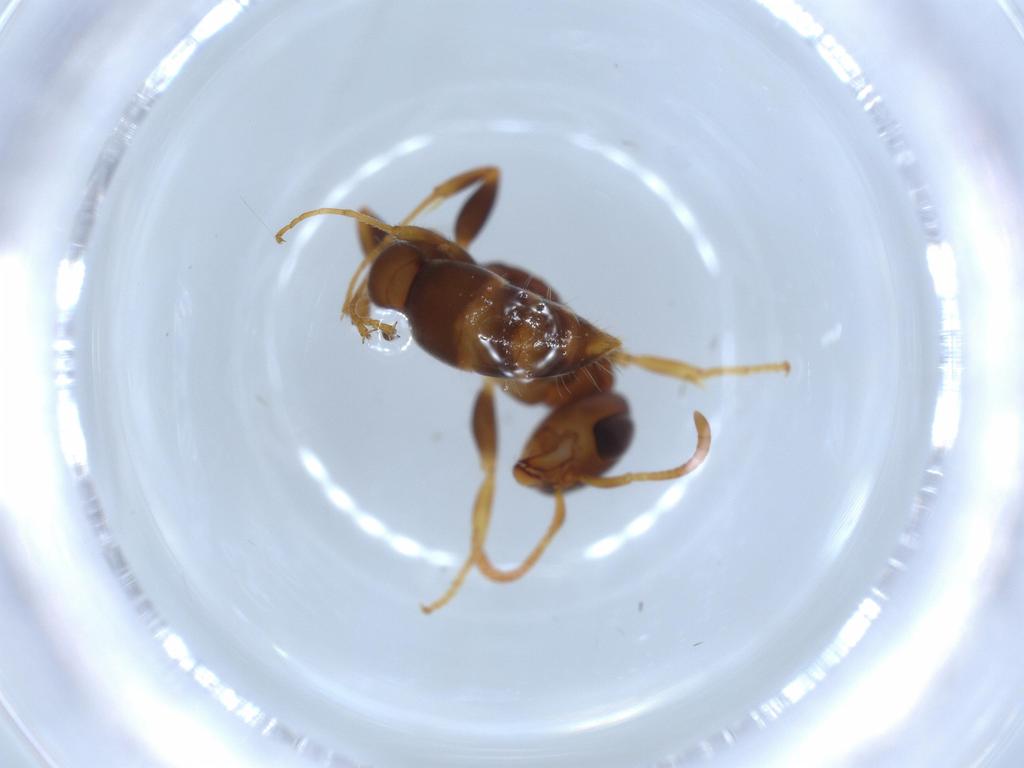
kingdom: Animalia
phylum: Arthropoda
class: Insecta
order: Hymenoptera
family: Formicidae
